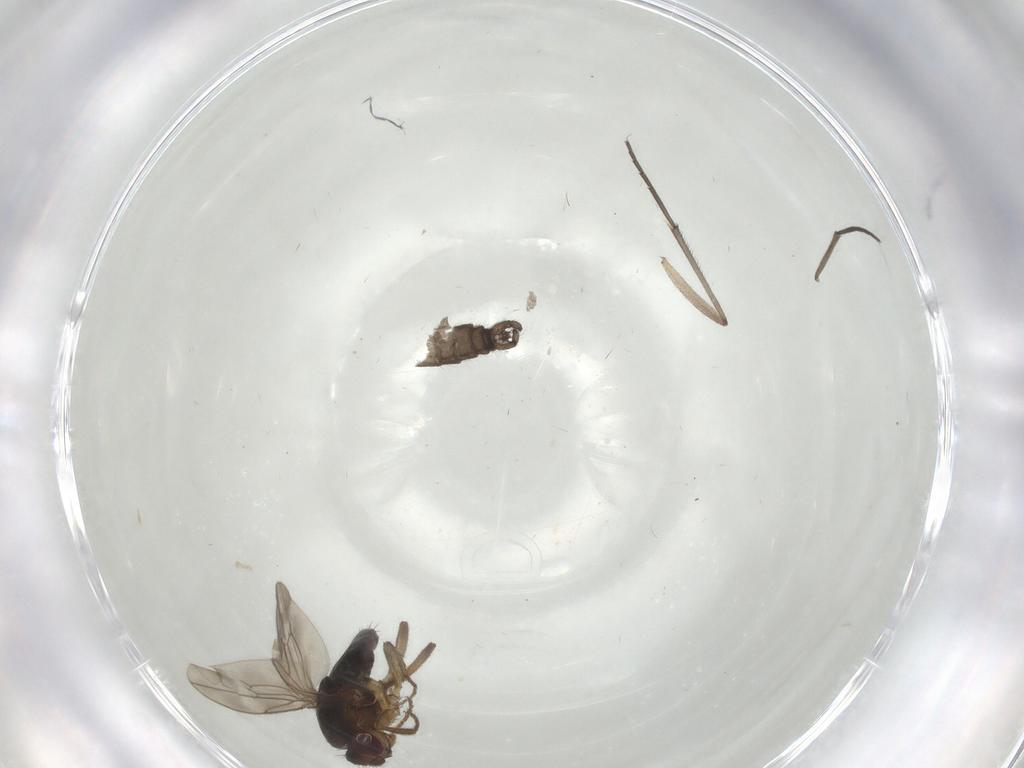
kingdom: Animalia
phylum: Arthropoda
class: Insecta
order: Diptera
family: Sphaeroceridae
